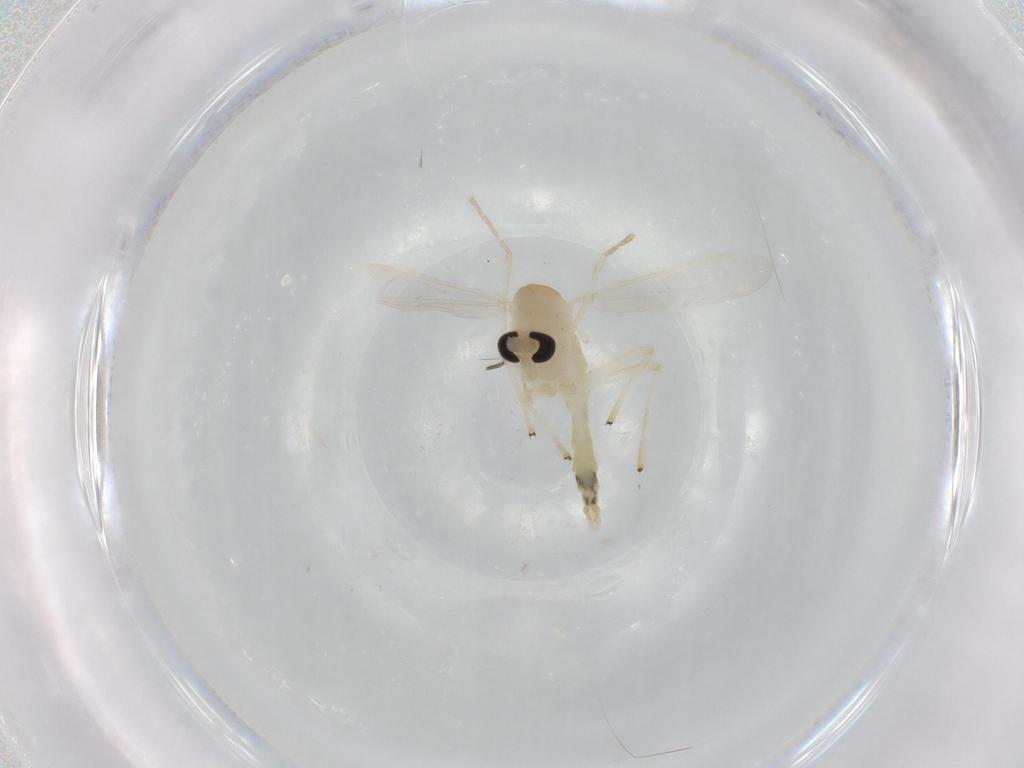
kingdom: Animalia
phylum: Arthropoda
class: Insecta
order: Diptera
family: Chironomidae
